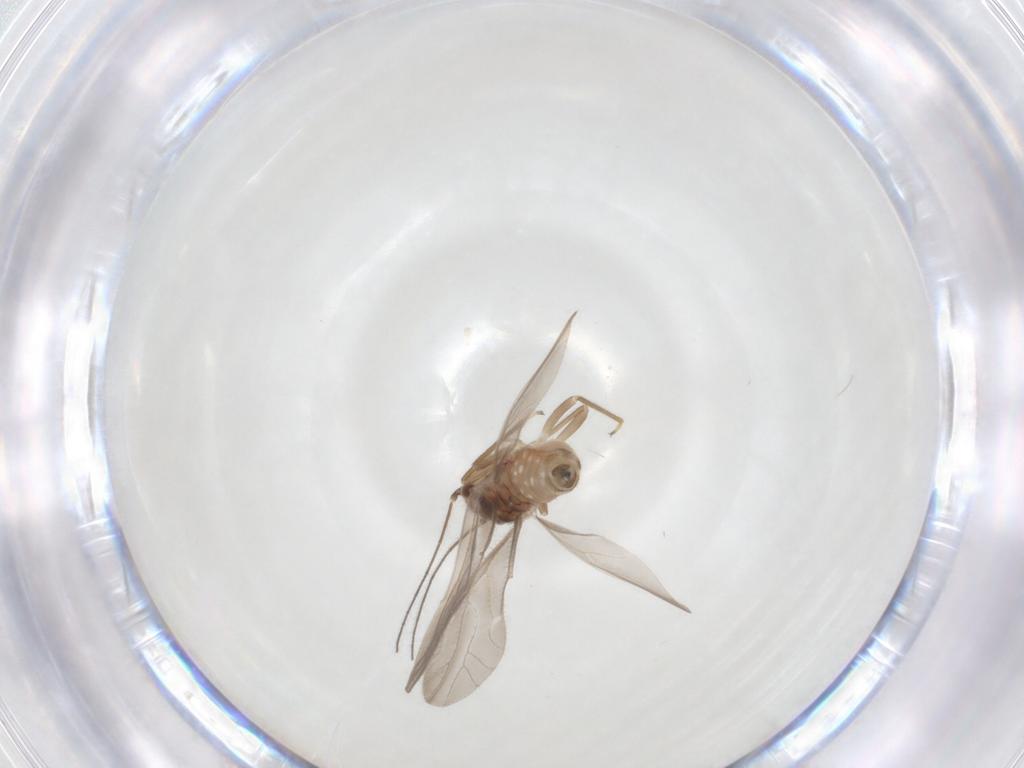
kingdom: Animalia
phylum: Arthropoda
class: Insecta
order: Psocodea
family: Caeciliusidae
